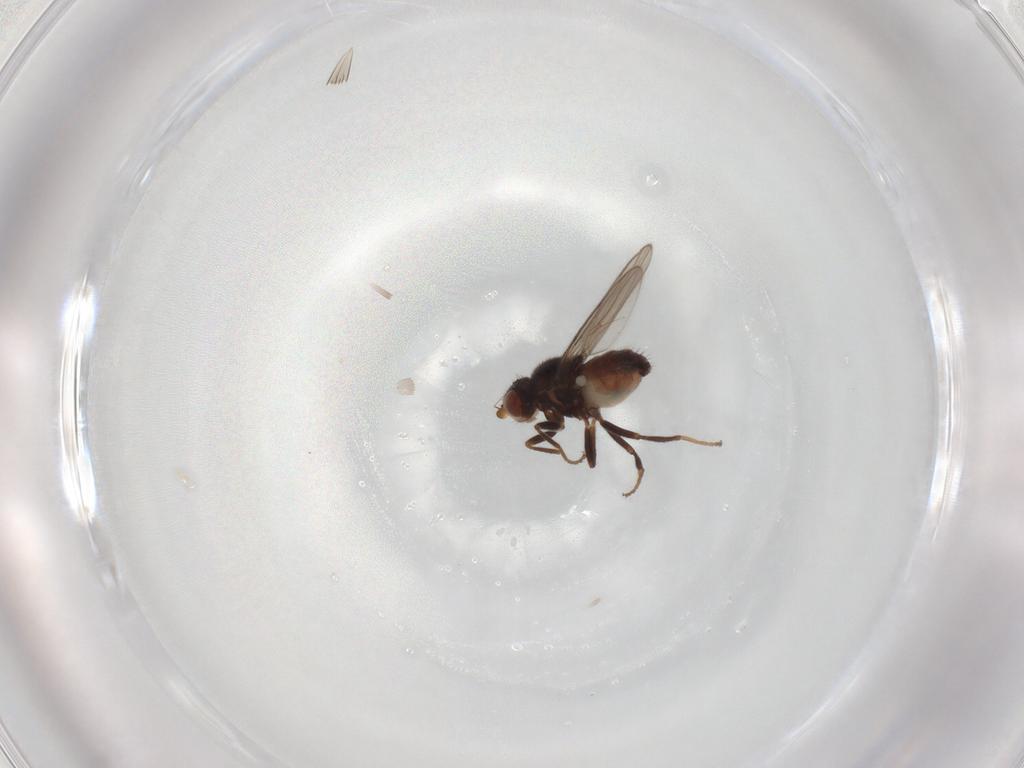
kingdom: Animalia
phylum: Arthropoda
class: Insecta
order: Diptera
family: Chloropidae
